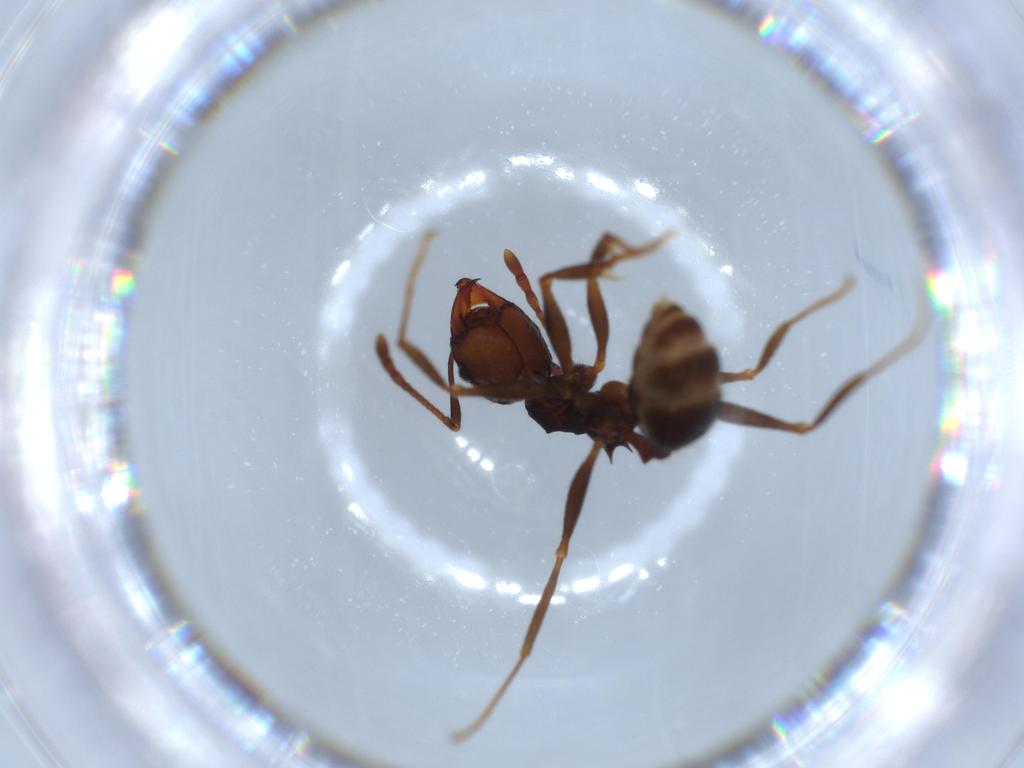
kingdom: Animalia
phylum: Arthropoda
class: Insecta
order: Hymenoptera
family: Formicidae
